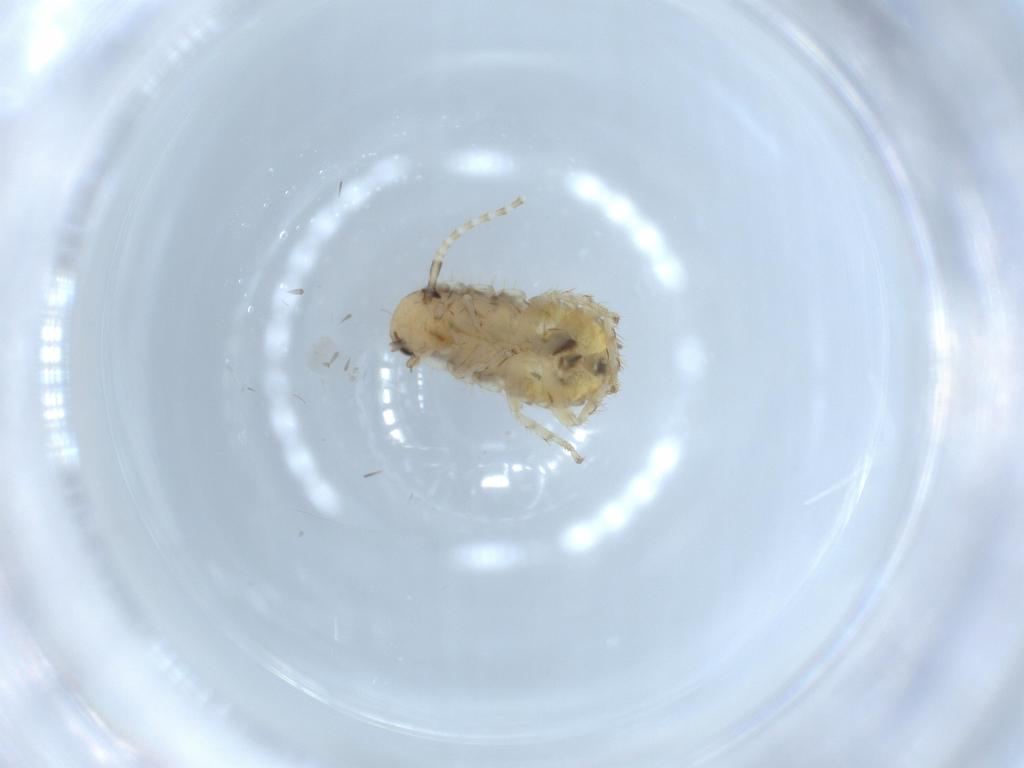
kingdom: Animalia
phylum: Arthropoda
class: Insecta
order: Blattodea
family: Ectobiidae
